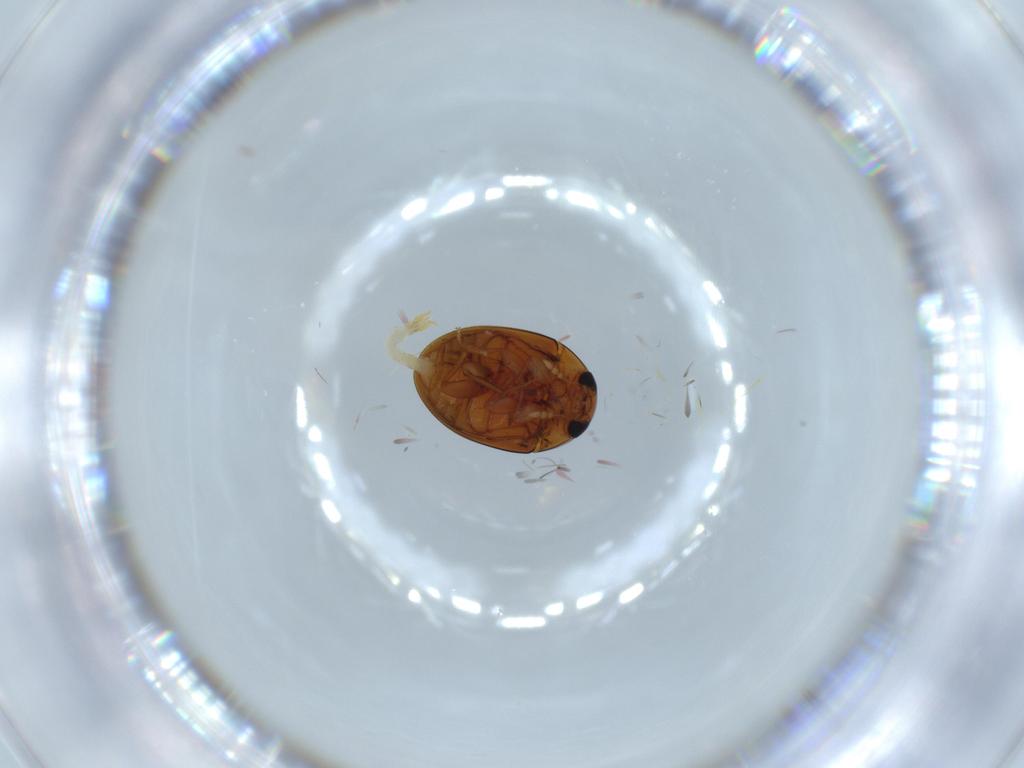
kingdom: Animalia
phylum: Arthropoda
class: Insecta
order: Coleoptera
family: Phalacridae
